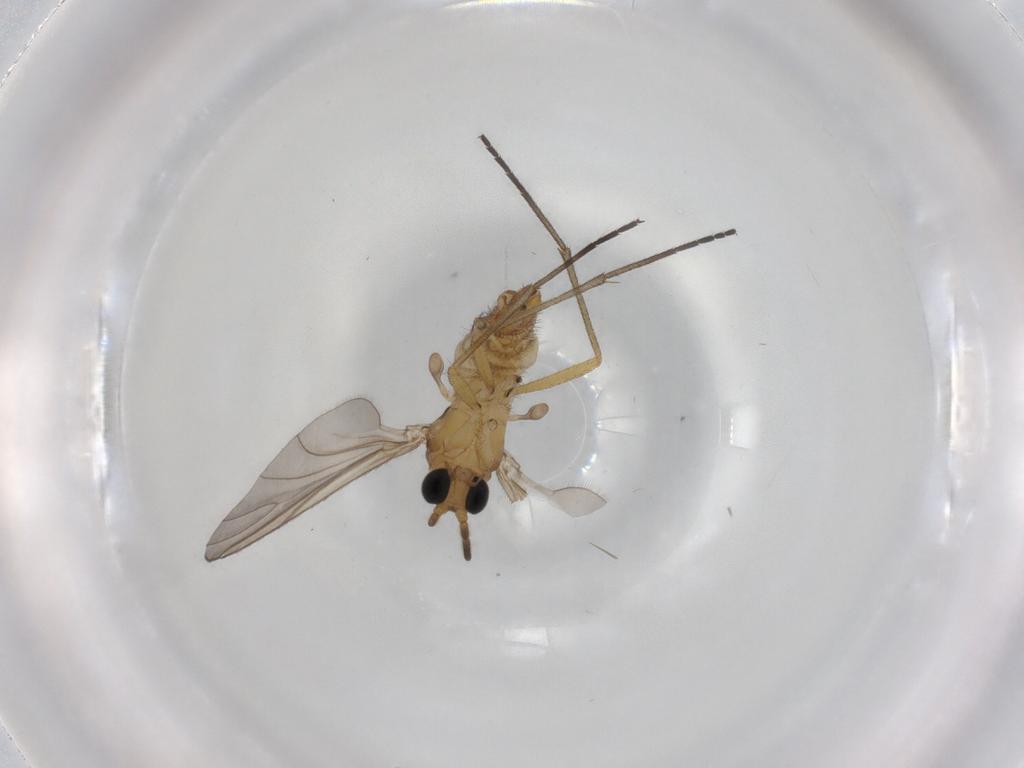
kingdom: Animalia
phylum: Arthropoda
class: Insecta
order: Diptera
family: Sciaridae
